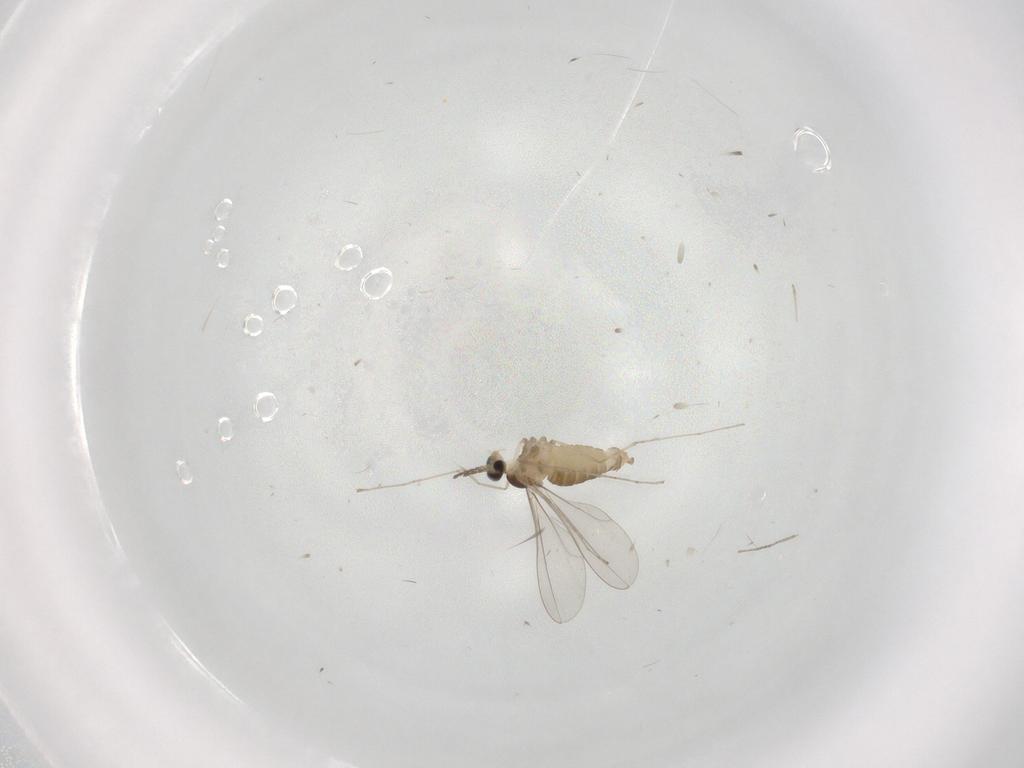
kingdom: Animalia
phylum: Arthropoda
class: Insecta
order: Diptera
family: Cecidomyiidae
